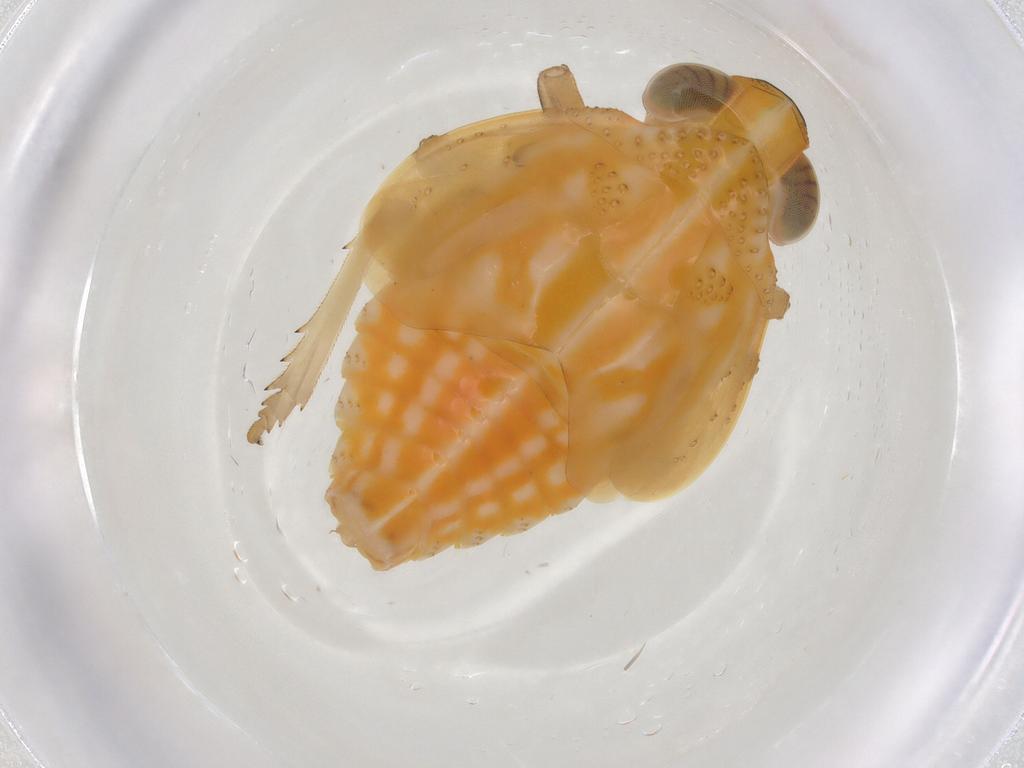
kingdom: Animalia
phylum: Arthropoda
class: Insecta
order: Hemiptera
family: Issidae
